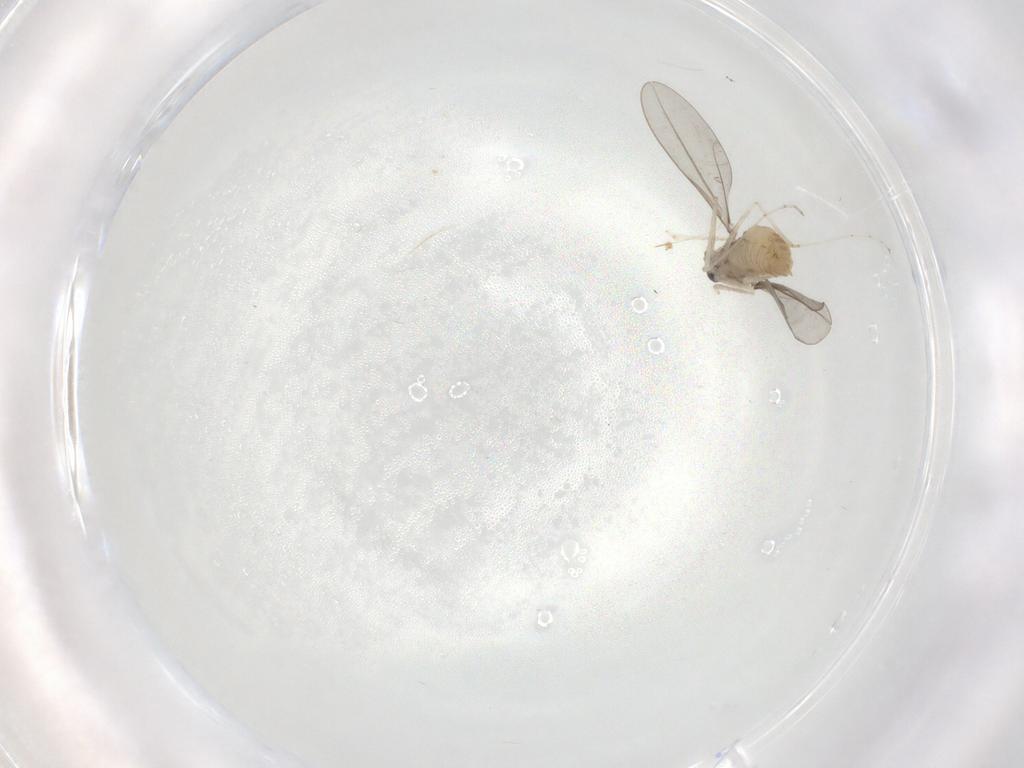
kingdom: Animalia
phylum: Arthropoda
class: Insecta
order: Diptera
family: Cecidomyiidae
